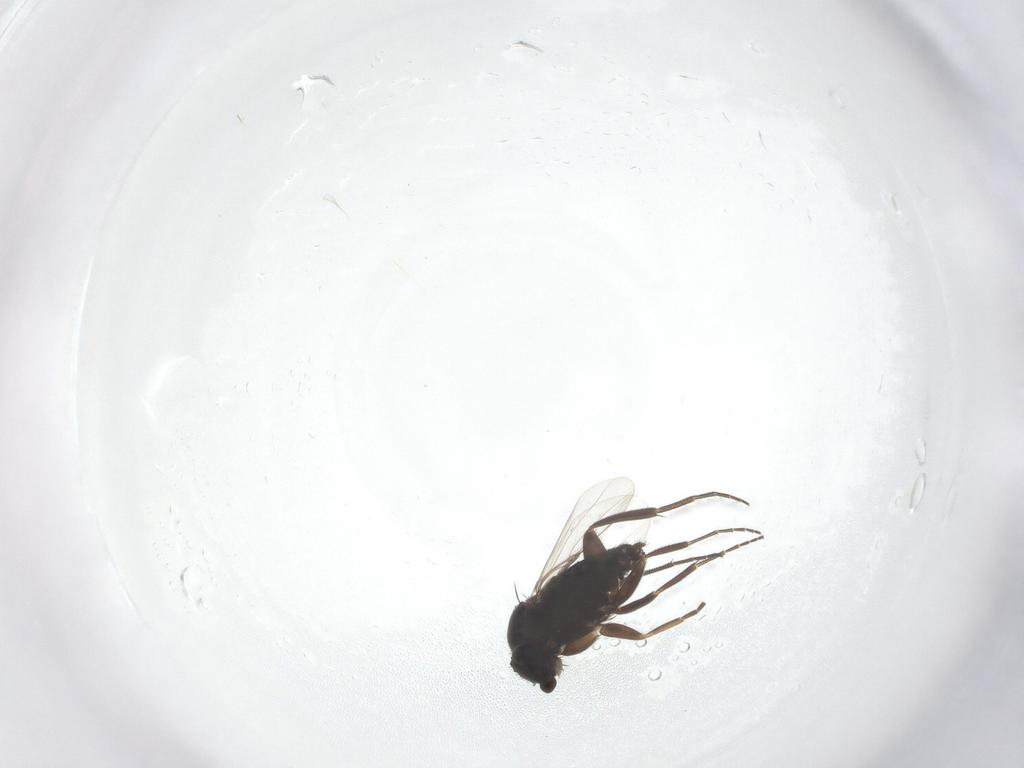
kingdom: Animalia
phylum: Arthropoda
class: Insecta
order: Diptera
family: Phoridae
